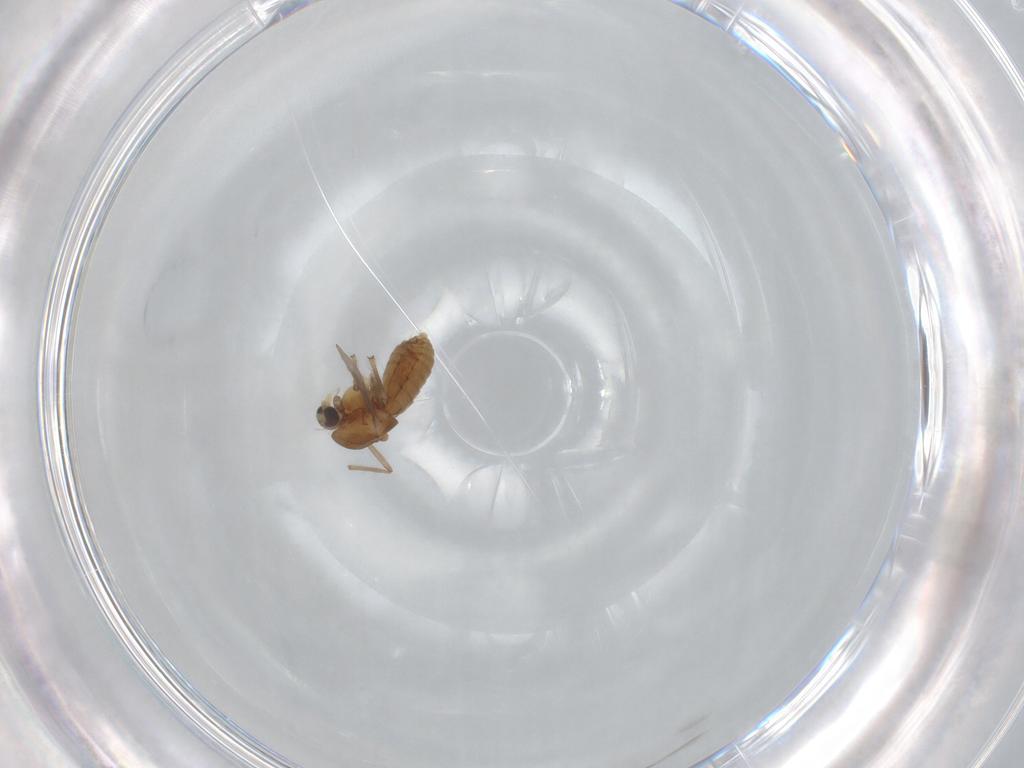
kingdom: Animalia
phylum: Arthropoda
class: Insecta
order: Diptera
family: Chironomidae
